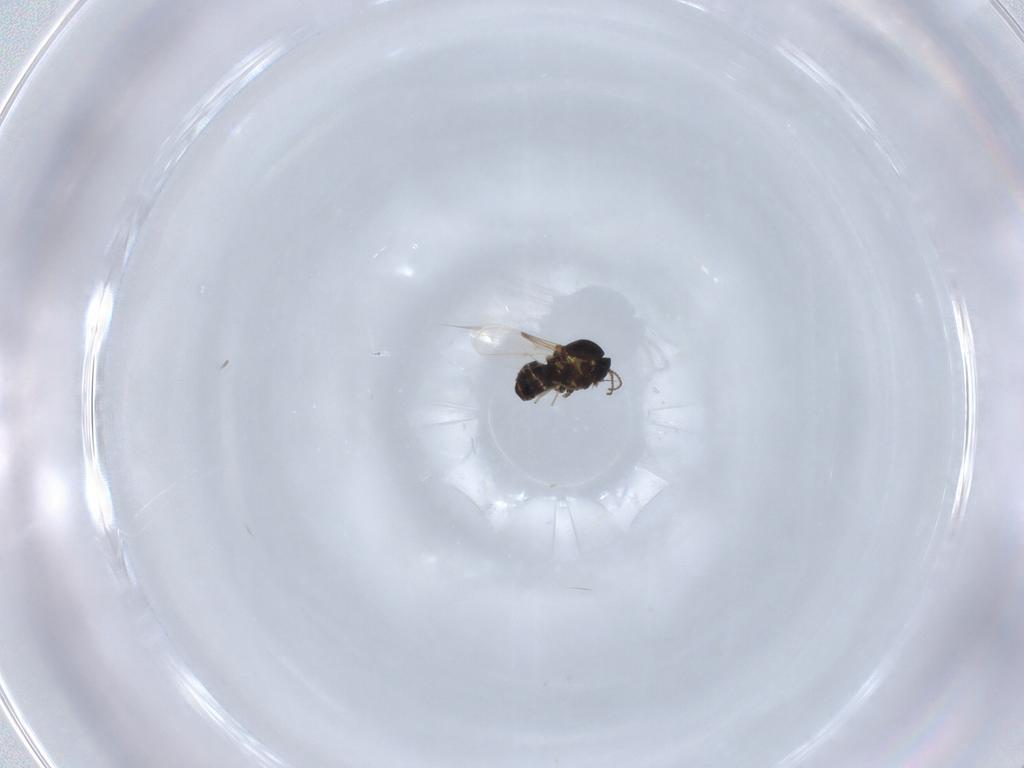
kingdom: Animalia
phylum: Arthropoda
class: Insecta
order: Diptera
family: Ceratopogonidae
